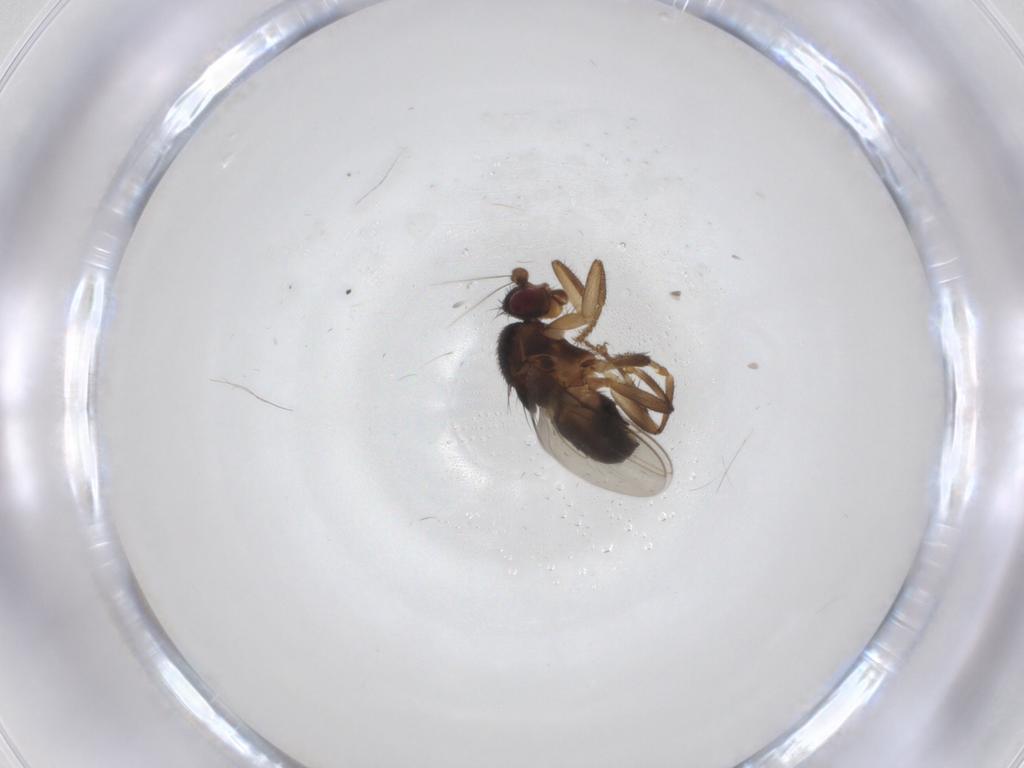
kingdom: Animalia
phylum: Arthropoda
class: Insecta
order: Diptera
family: Sphaeroceridae
